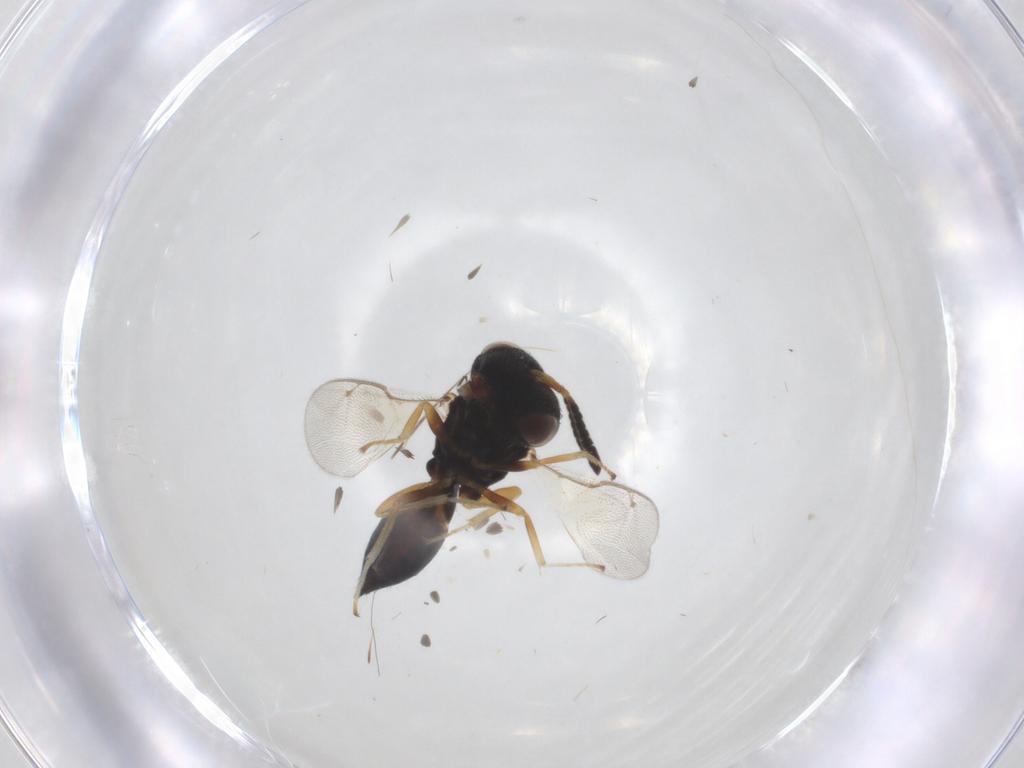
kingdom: Animalia
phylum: Arthropoda
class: Insecta
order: Hymenoptera
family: Pteromalidae
